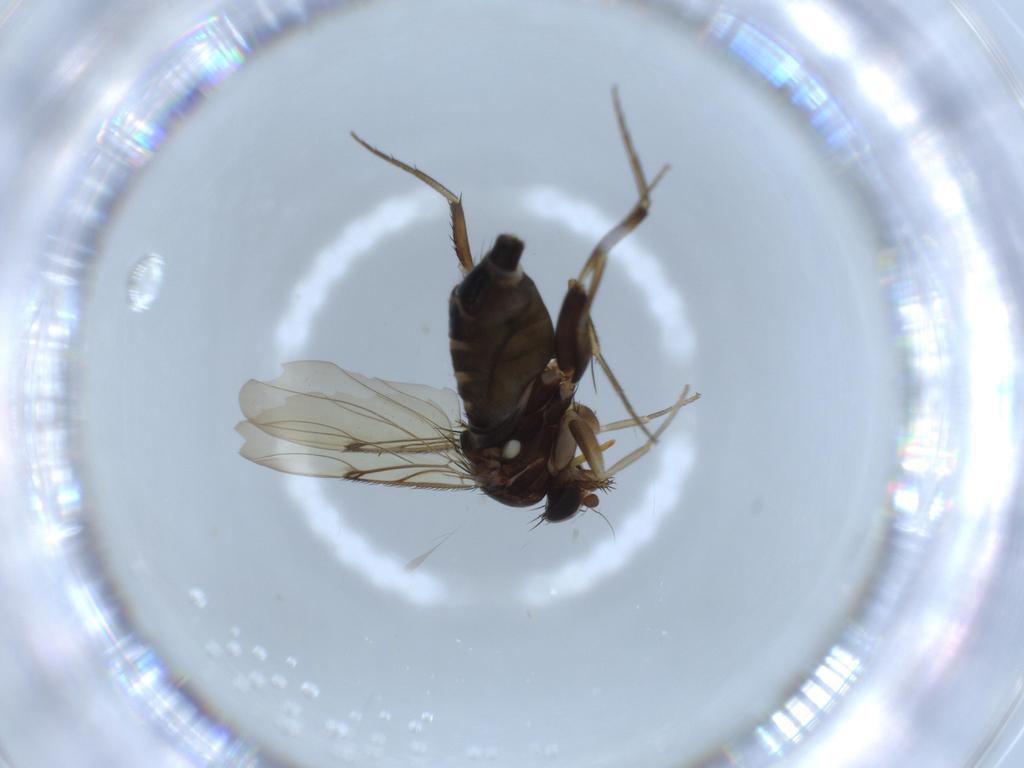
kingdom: Animalia
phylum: Arthropoda
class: Insecta
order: Diptera
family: Phoridae
